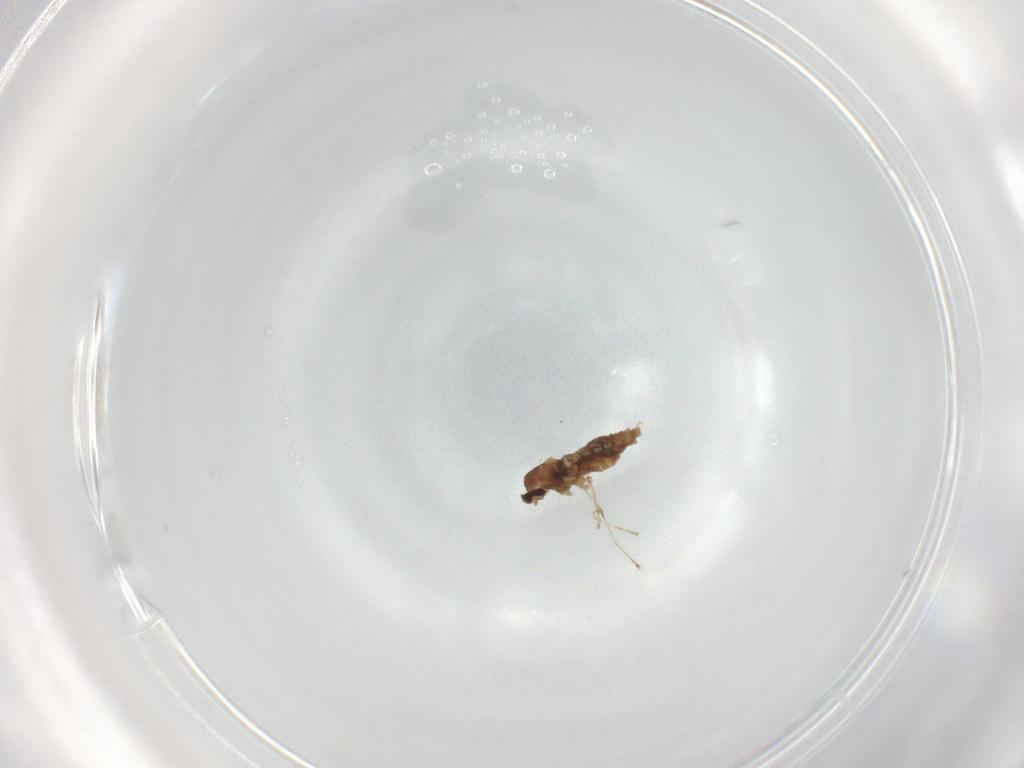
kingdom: Animalia
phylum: Arthropoda
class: Insecta
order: Diptera
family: Cecidomyiidae
